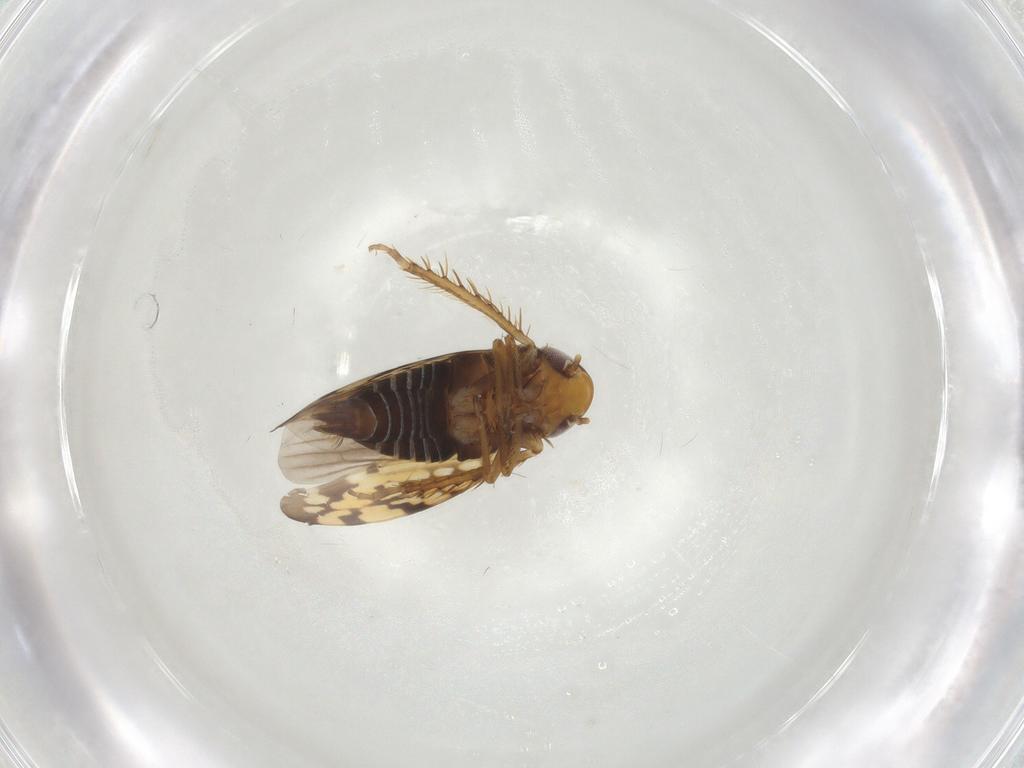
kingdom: Animalia
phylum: Arthropoda
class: Insecta
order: Hemiptera
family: Cicadellidae
